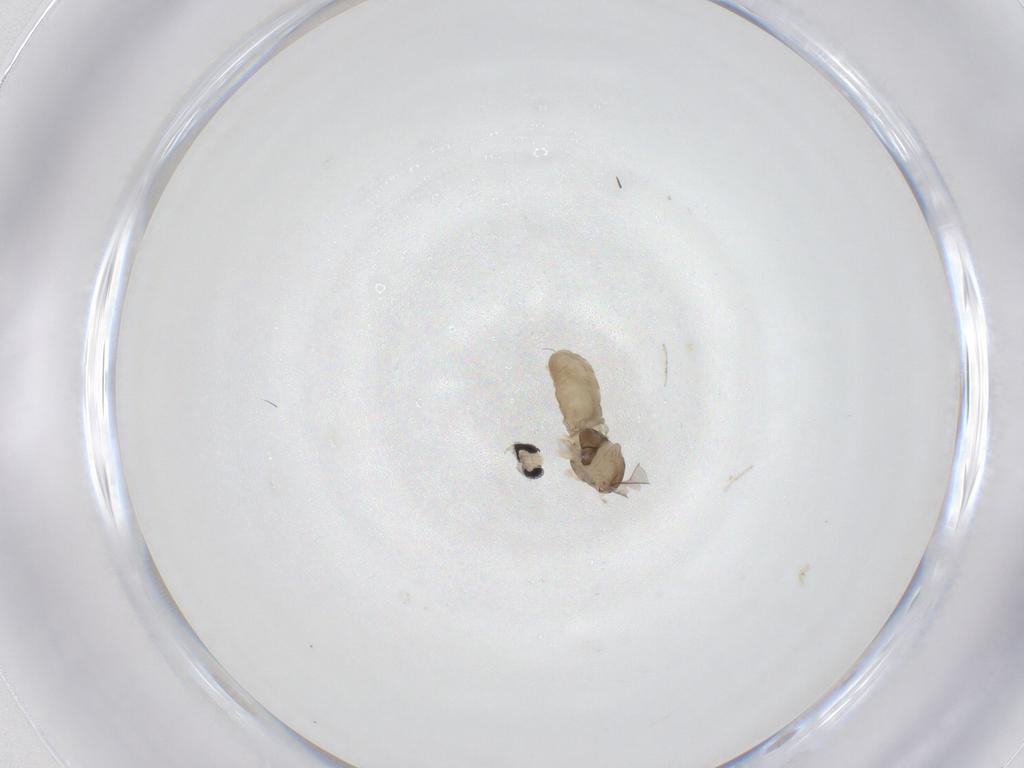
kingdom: Animalia
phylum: Arthropoda
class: Insecta
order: Diptera
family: Cecidomyiidae
